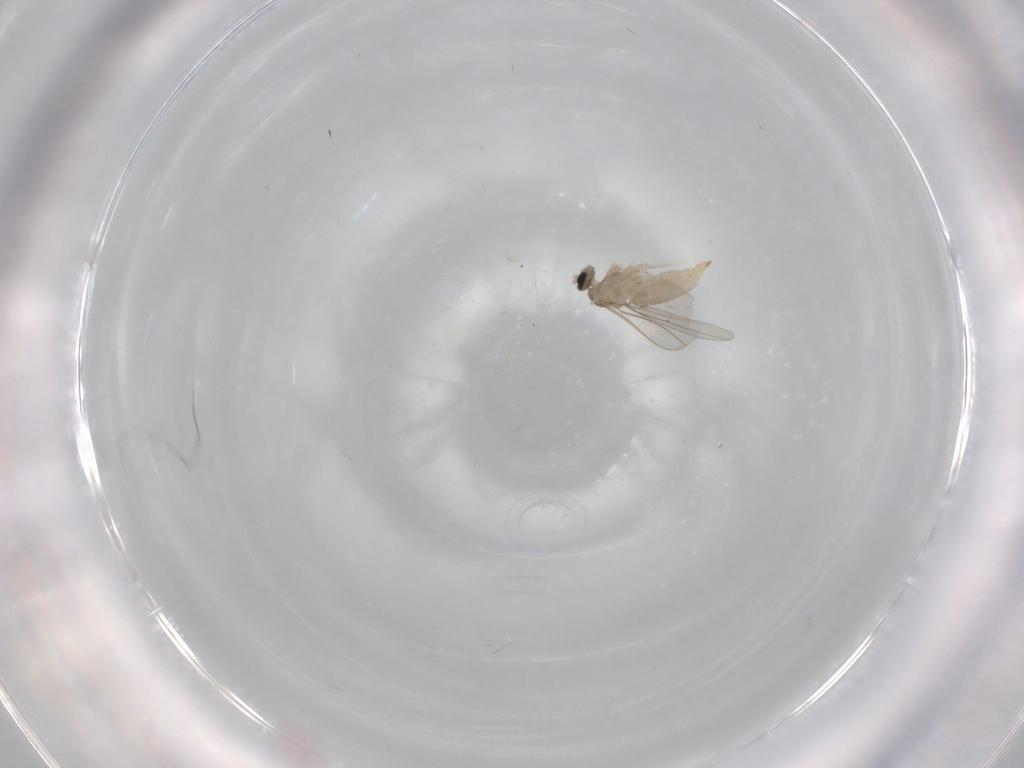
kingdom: Animalia
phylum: Arthropoda
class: Insecta
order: Diptera
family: Cecidomyiidae
